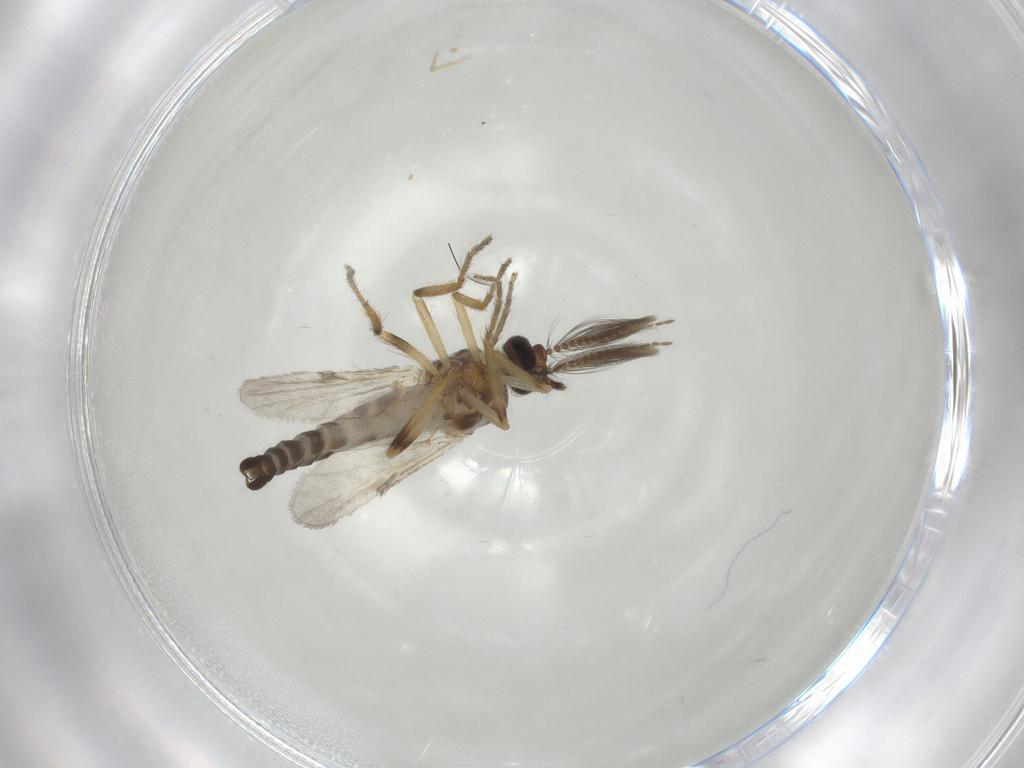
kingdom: Animalia
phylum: Arthropoda
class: Insecta
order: Diptera
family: Ceratopogonidae
